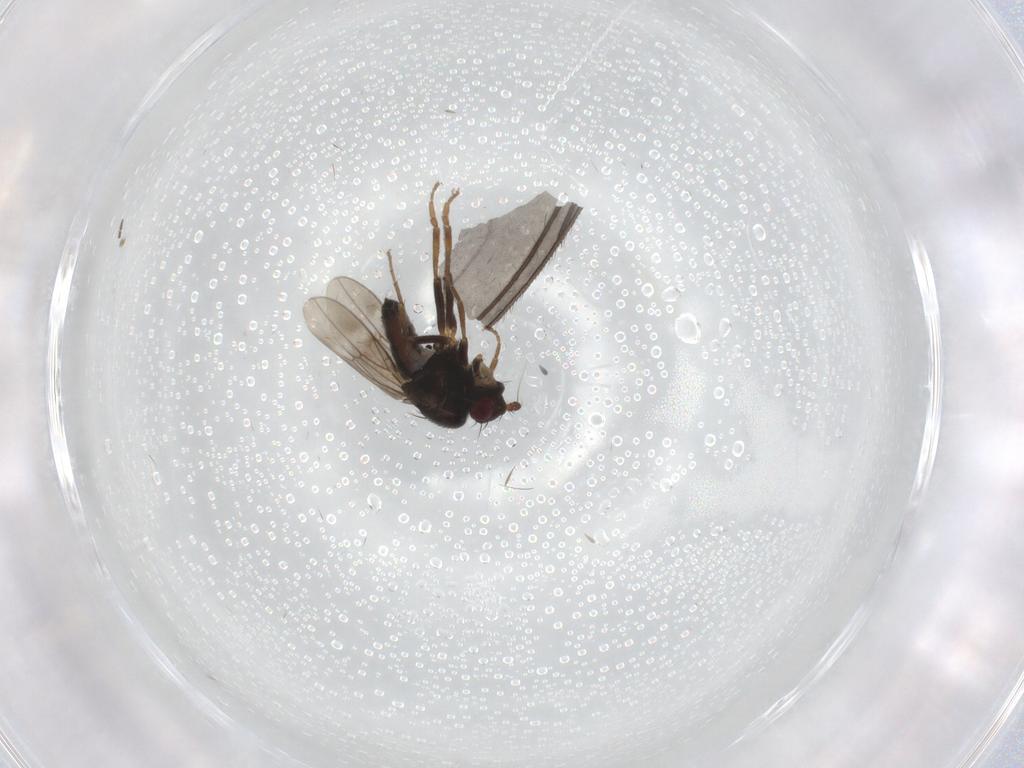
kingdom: Animalia
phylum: Arthropoda
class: Insecta
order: Diptera
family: Sphaeroceridae
